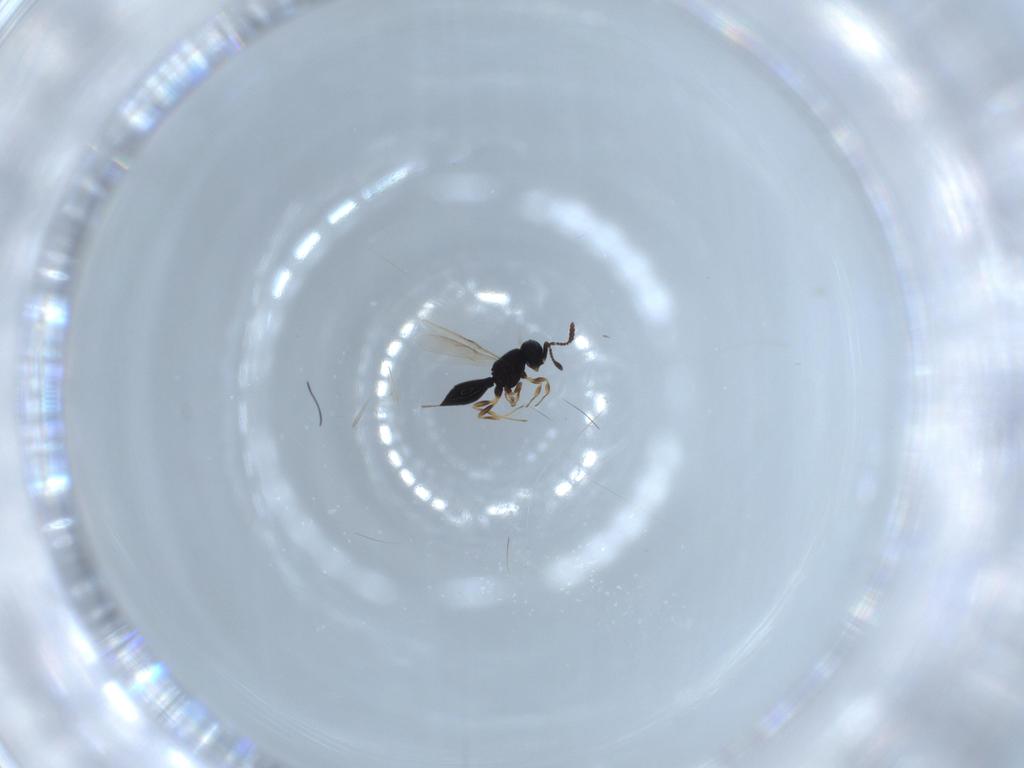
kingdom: Animalia
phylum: Arthropoda
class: Insecta
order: Hymenoptera
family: Scelionidae
